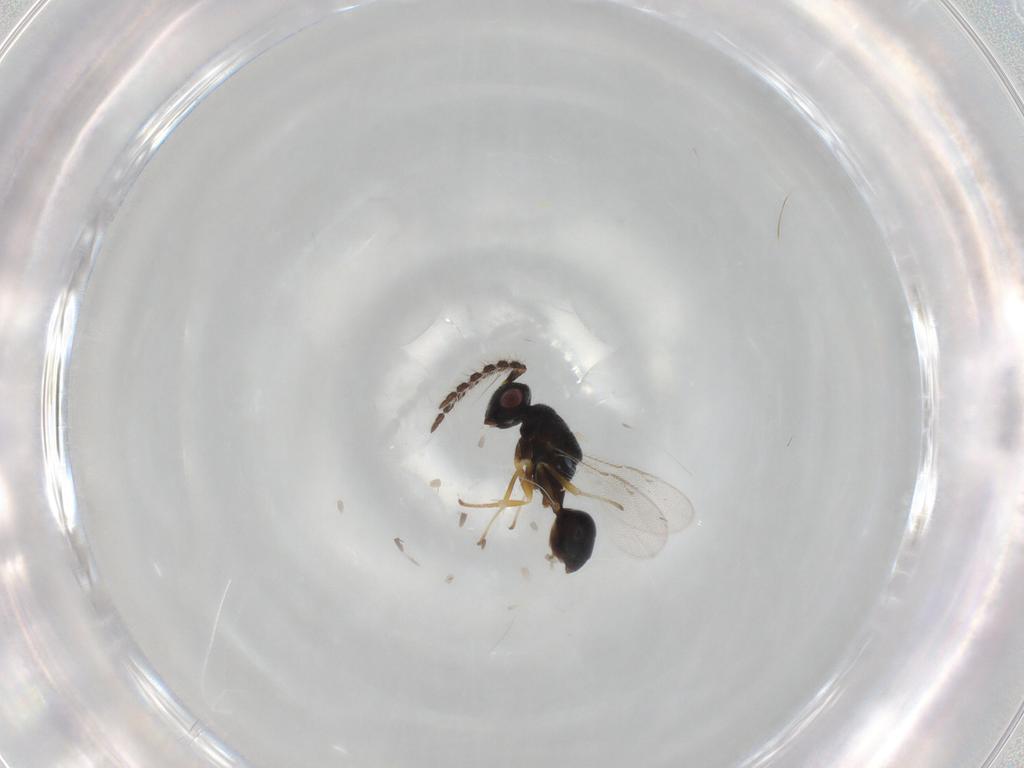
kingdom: Animalia
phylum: Arthropoda
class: Insecta
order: Hymenoptera
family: Eurytomidae
